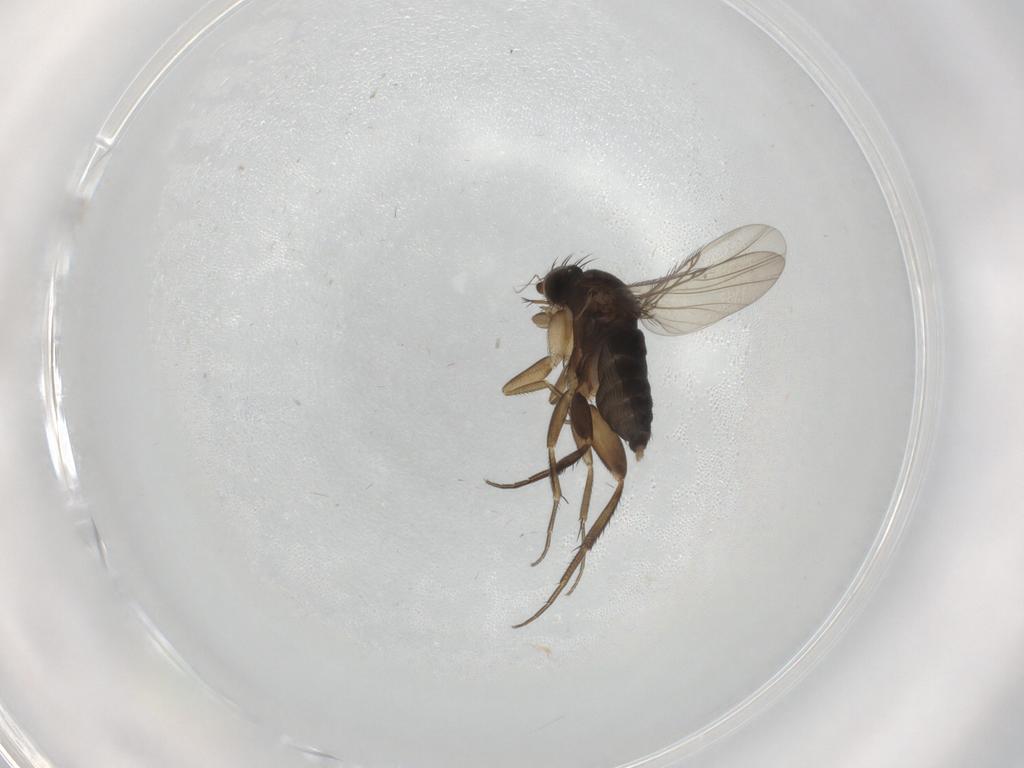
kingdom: Animalia
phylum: Arthropoda
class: Insecta
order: Diptera
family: Phoridae
